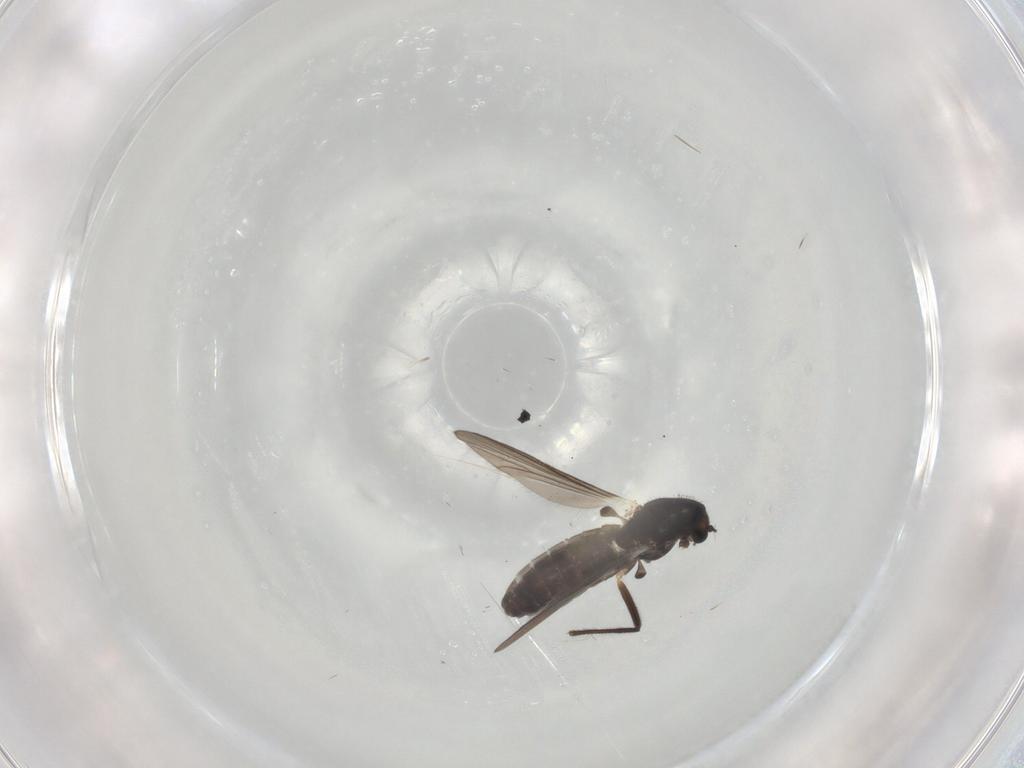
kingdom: Animalia
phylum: Arthropoda
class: Insecta
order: Diptera
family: Chironomidae
